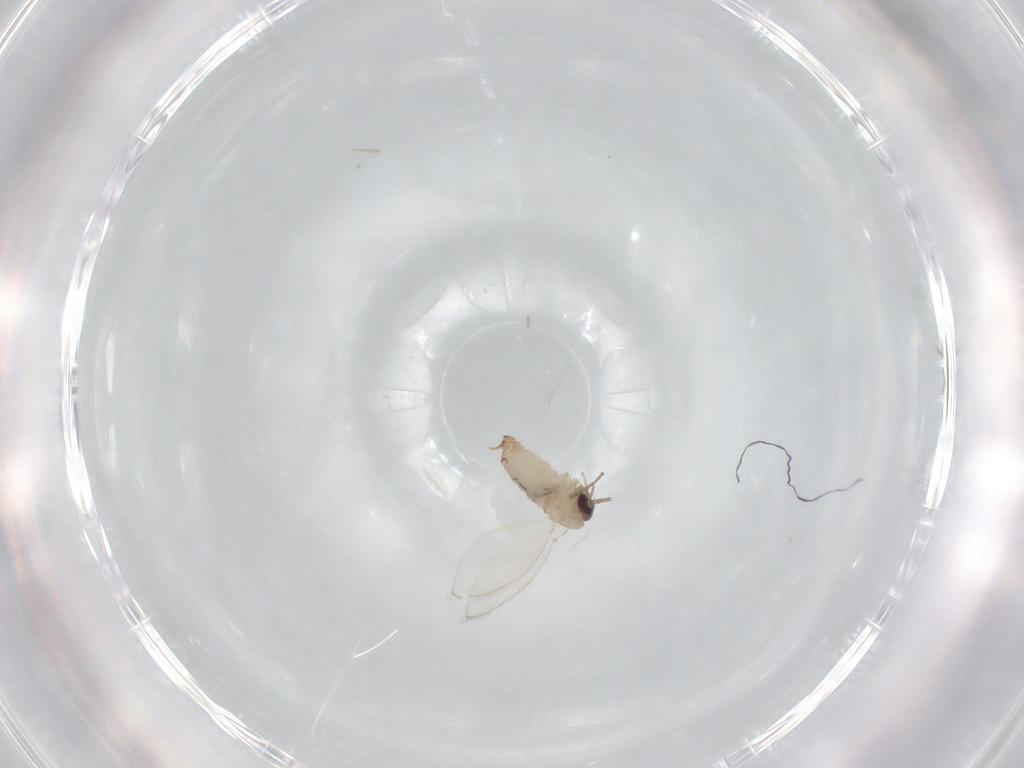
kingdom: Animalia
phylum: Arthropoda
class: Insecta
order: Diptera
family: Psychodidae
